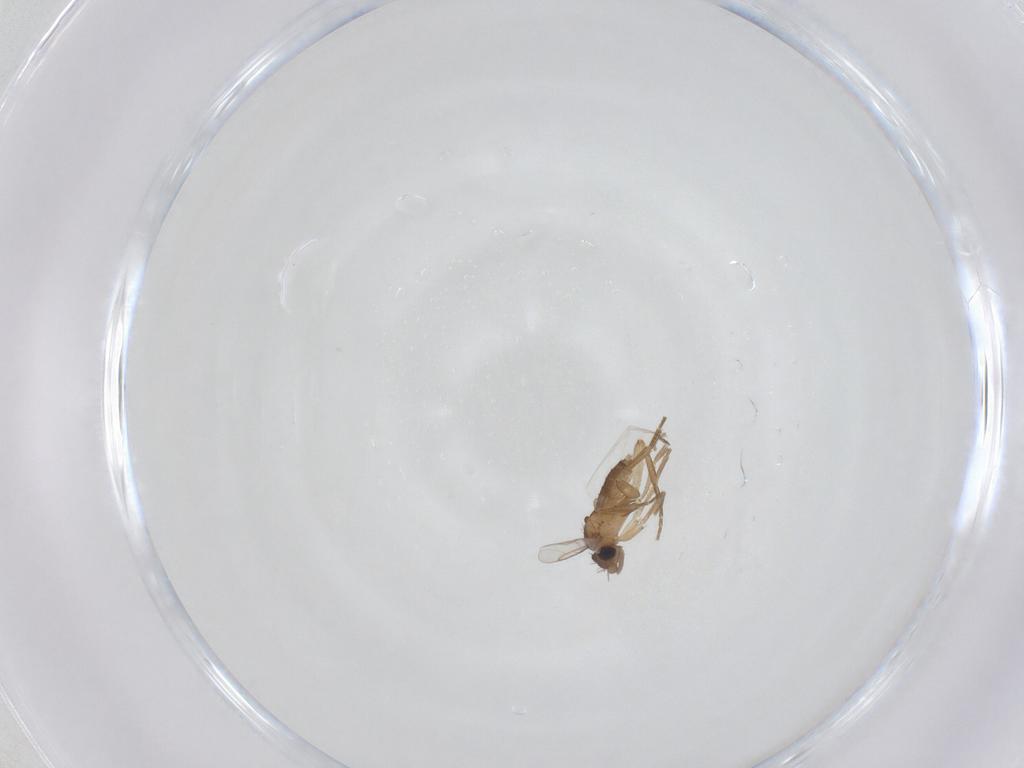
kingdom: Animalia
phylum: Arthropoda
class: Insecta
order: Diptera
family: Phoridae
